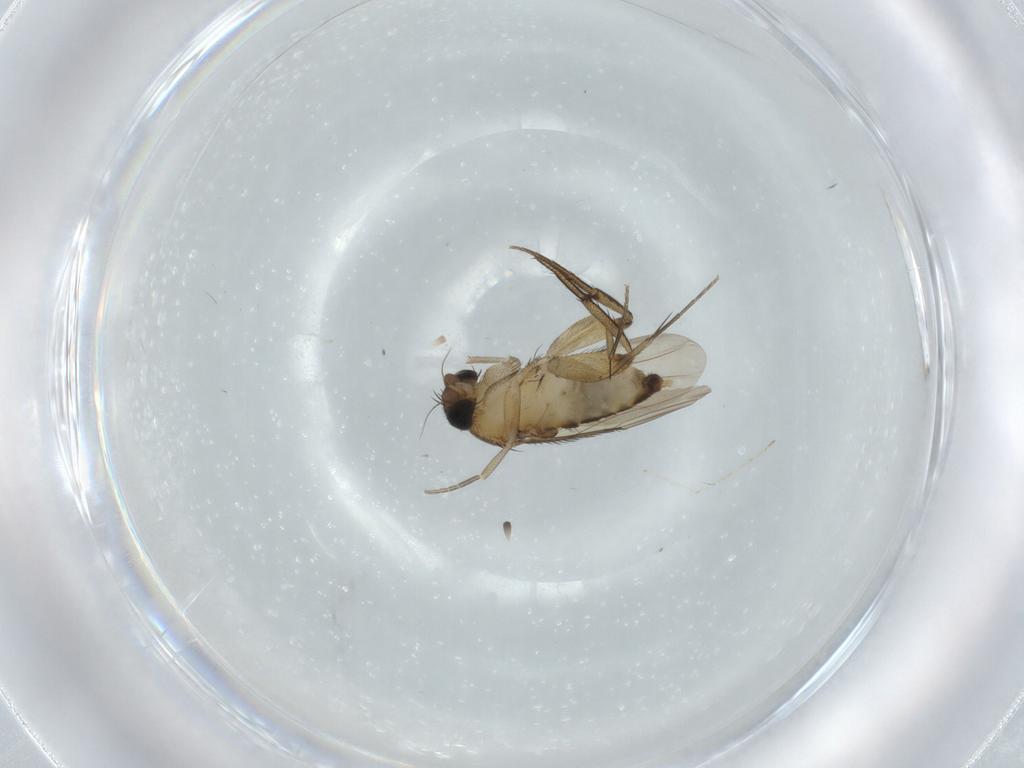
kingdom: Animalia
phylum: Arthropoda
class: Insecta
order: Diptera
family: Phoridae
